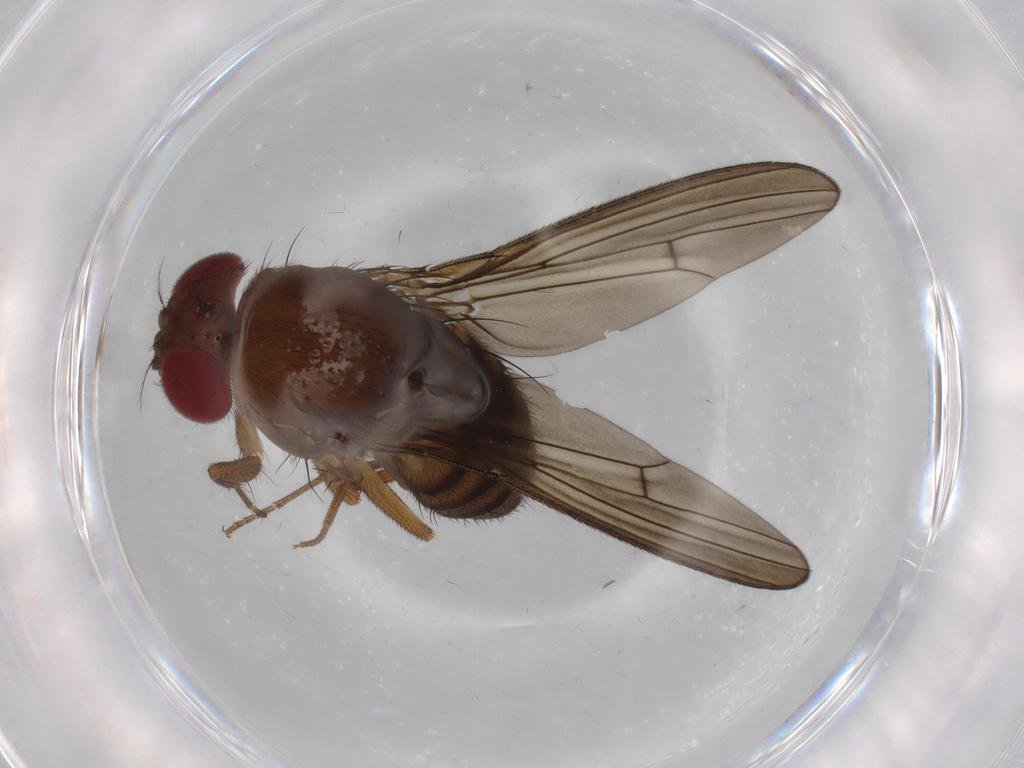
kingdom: Animalia
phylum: Arthropoda
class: Insecta
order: Diptera
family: Drosophilidae
